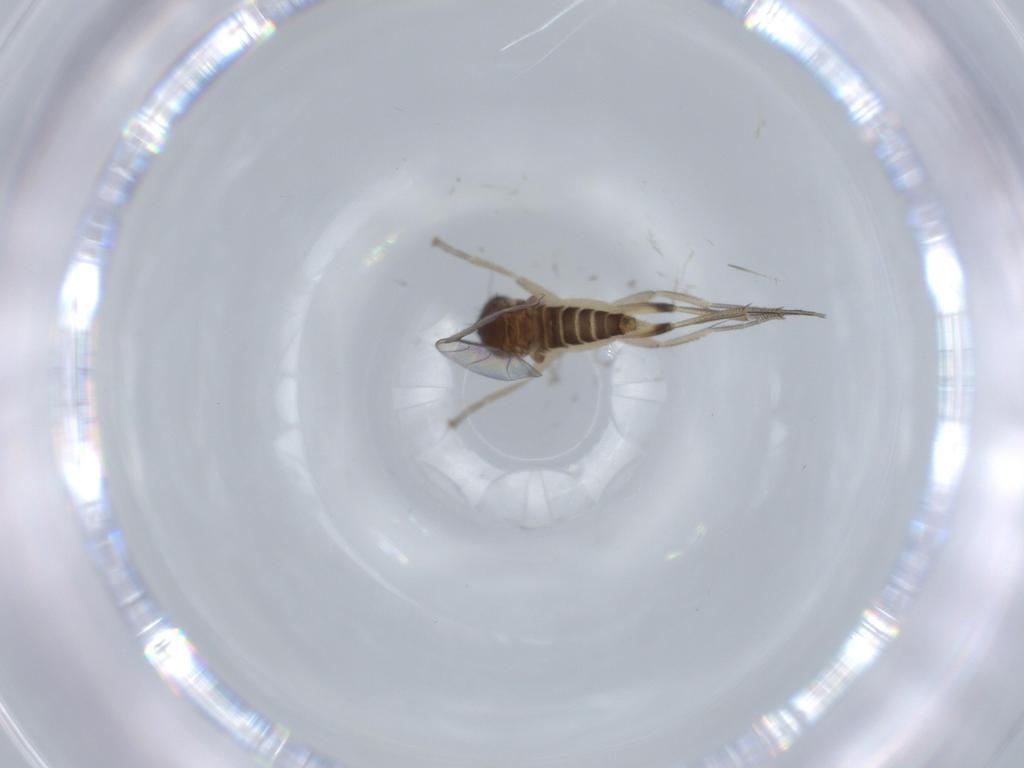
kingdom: Animalia
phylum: Arthropoda
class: Insecta
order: Diptera
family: Phoridae
